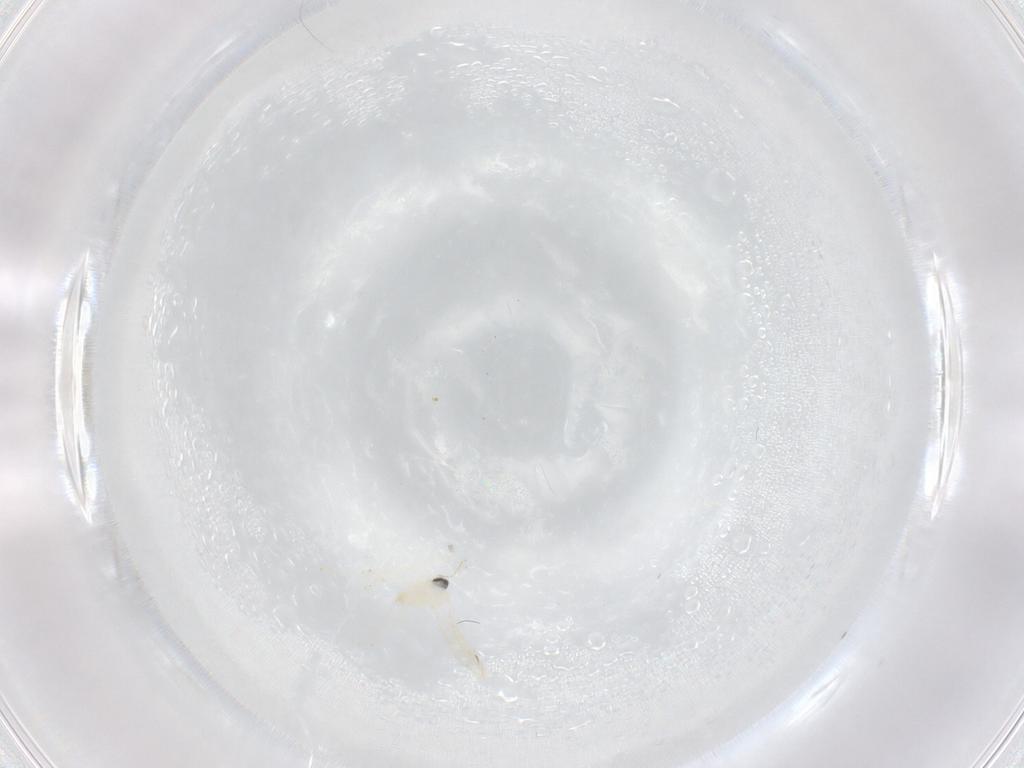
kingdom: Animalia
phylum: Arthropoda
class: Insecta
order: Diptera
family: Cecidomyiidae
